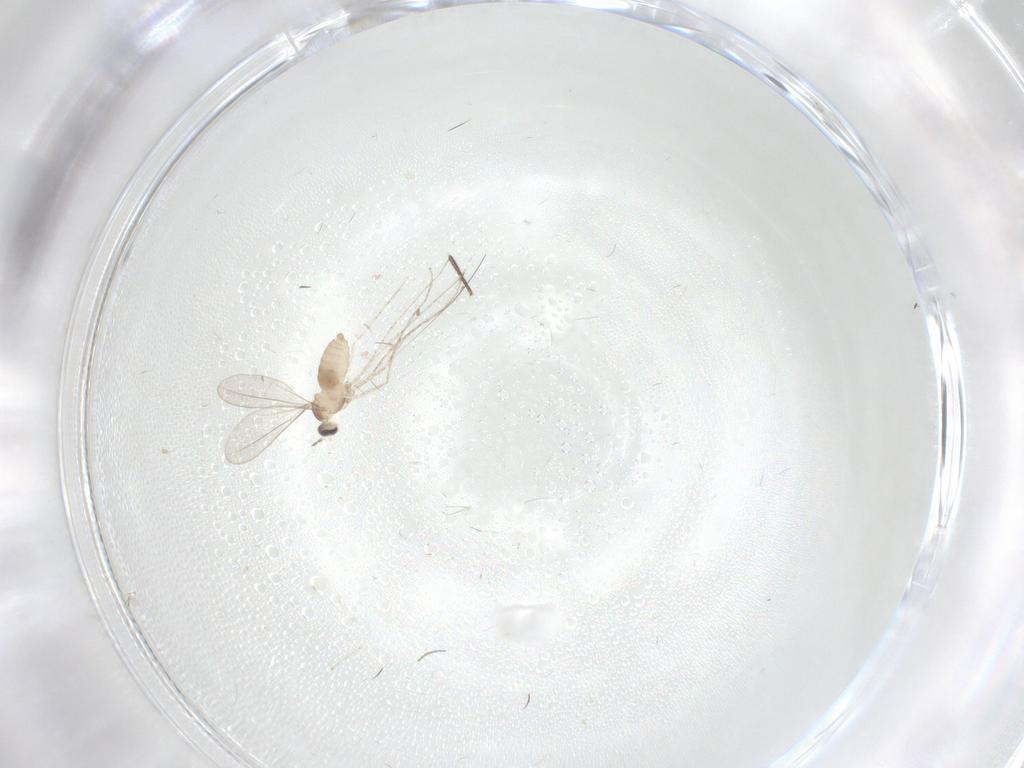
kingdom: Animalia
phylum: Arthropoda
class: Insecta
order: Diptera
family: Cecidomyiidae
